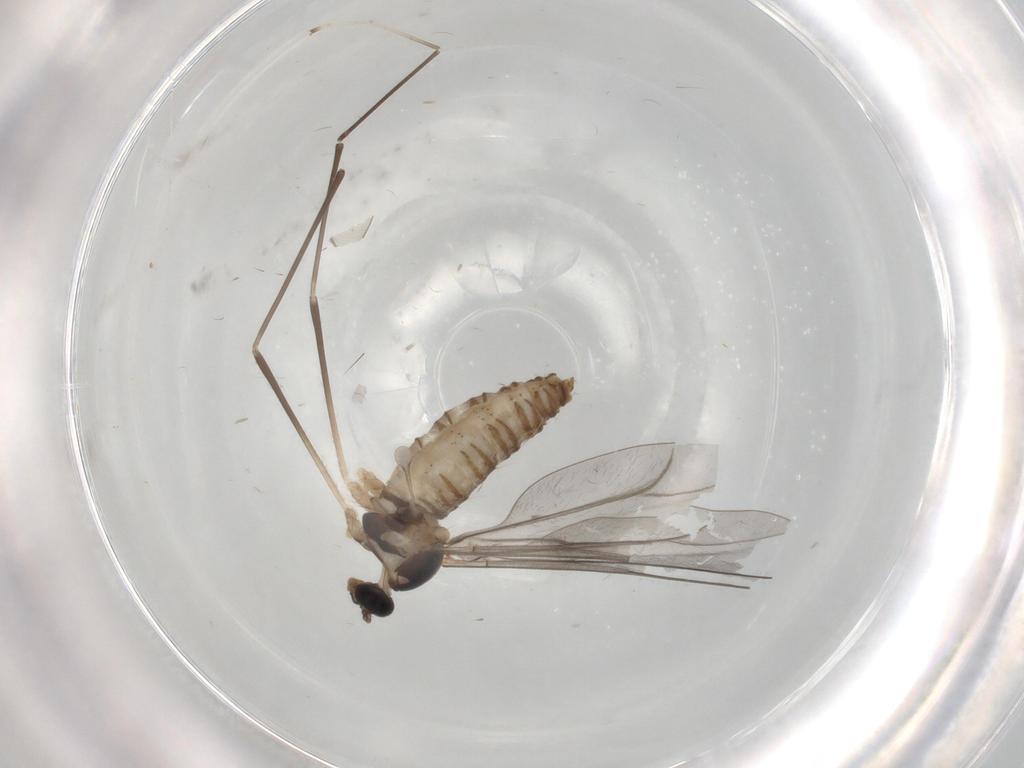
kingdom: Animalia
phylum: Arthropoda
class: Insecta
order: Diptera
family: Cecidomyiidae
